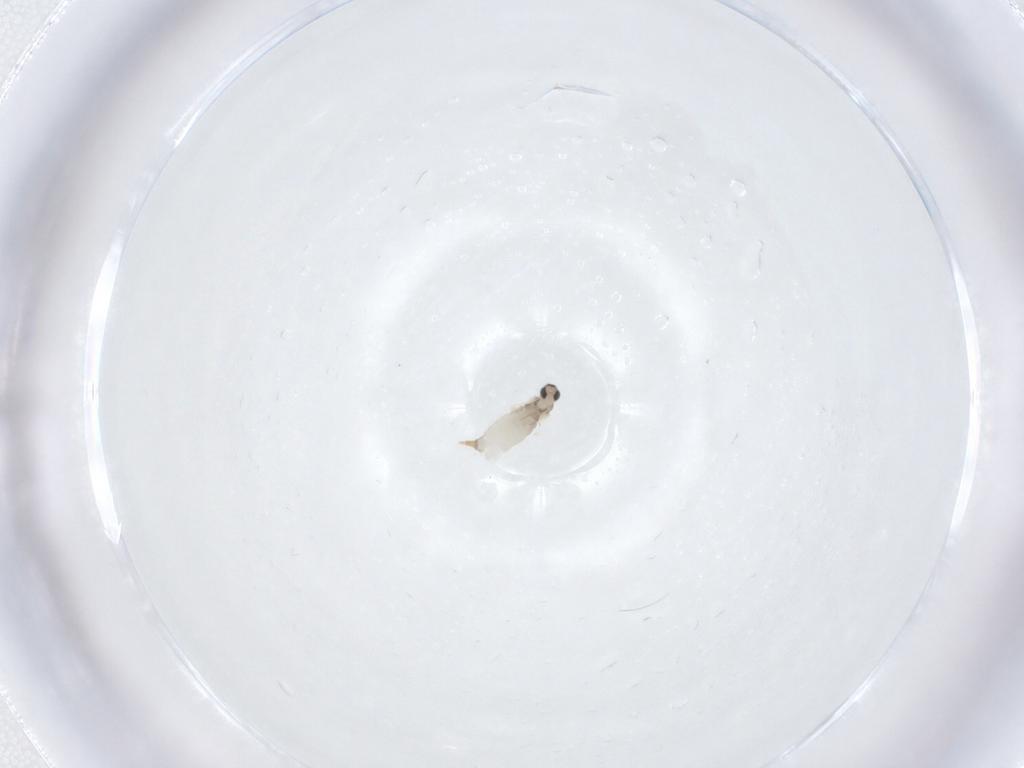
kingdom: Animalia
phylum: Arthropoda
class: Insecta
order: Diptera
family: Cecidomyiidae
